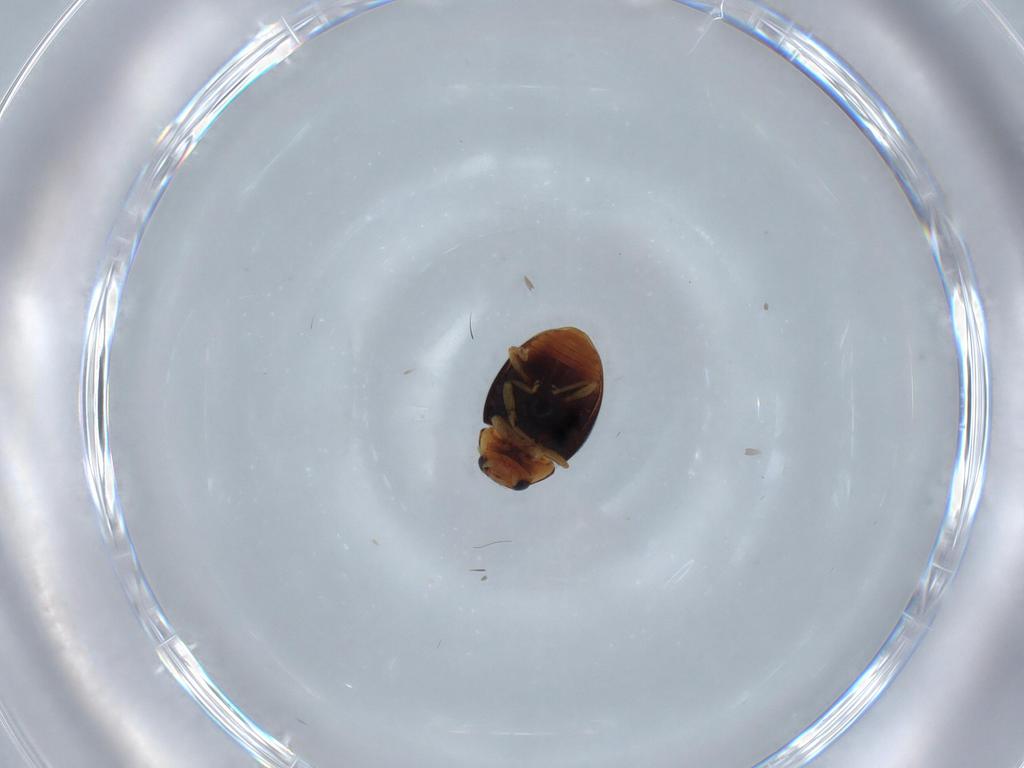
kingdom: Animalia
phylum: Arthropoda
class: Insecta
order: Coleoptera
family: Coccinellidae
